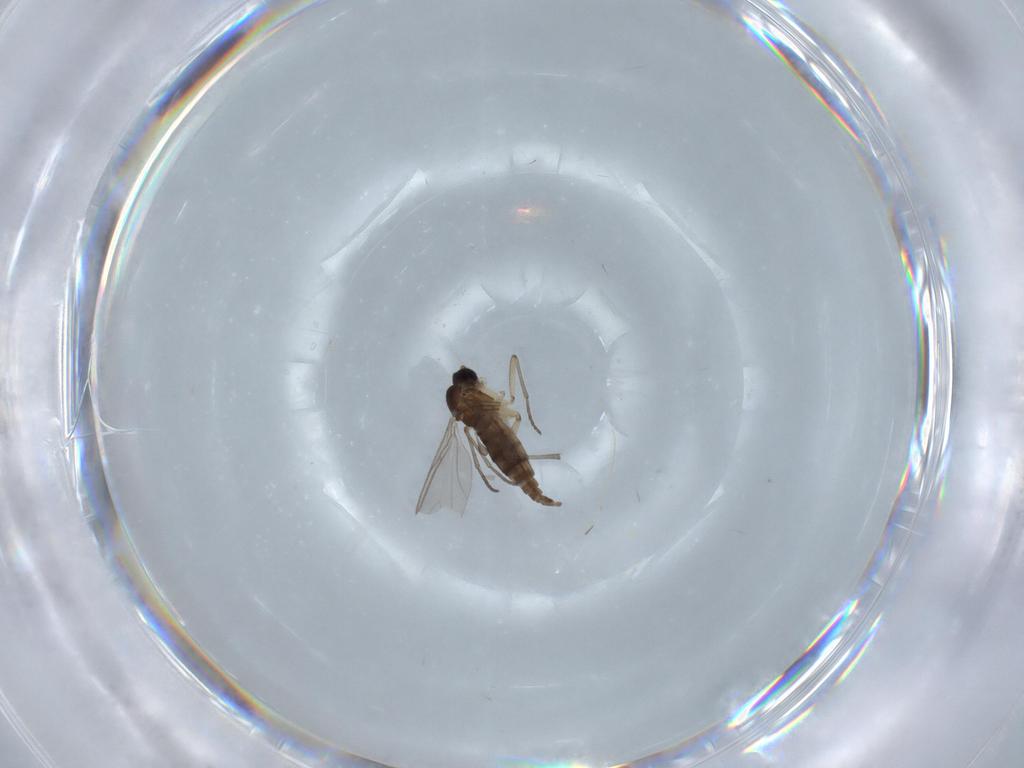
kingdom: Animalia
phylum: Arthropoda
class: Insecta
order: Diptera
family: Sciaridae
